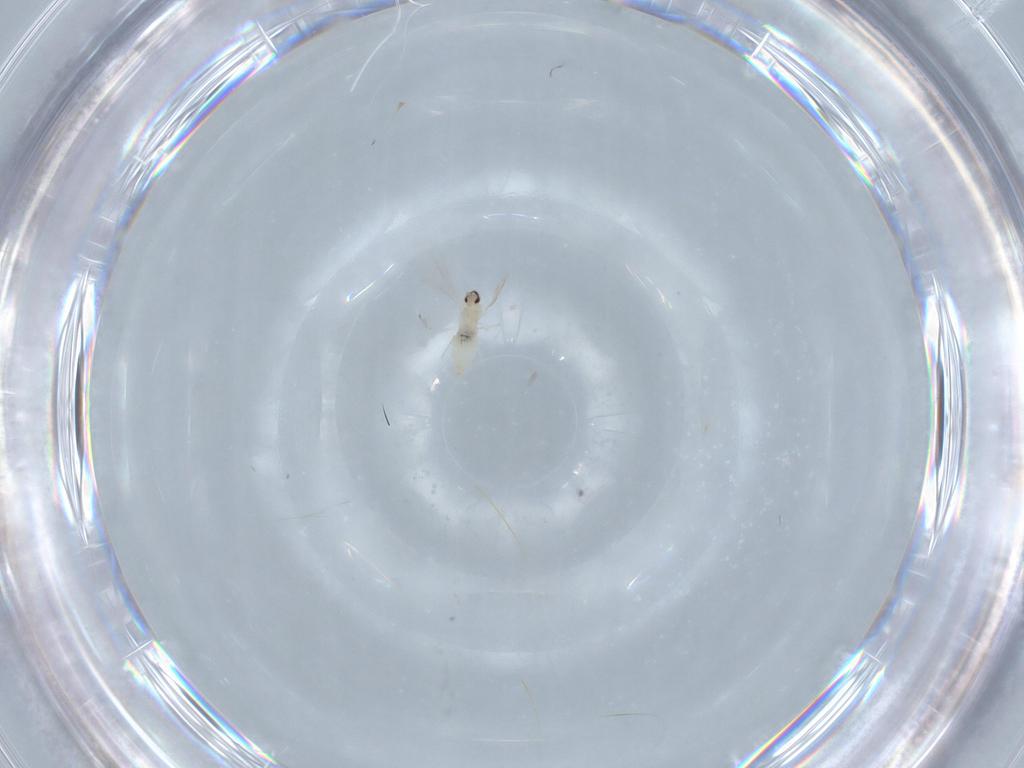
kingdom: Animalia
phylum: Arthropoda
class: Insecta
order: Diptera
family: Cecidomyiidae
